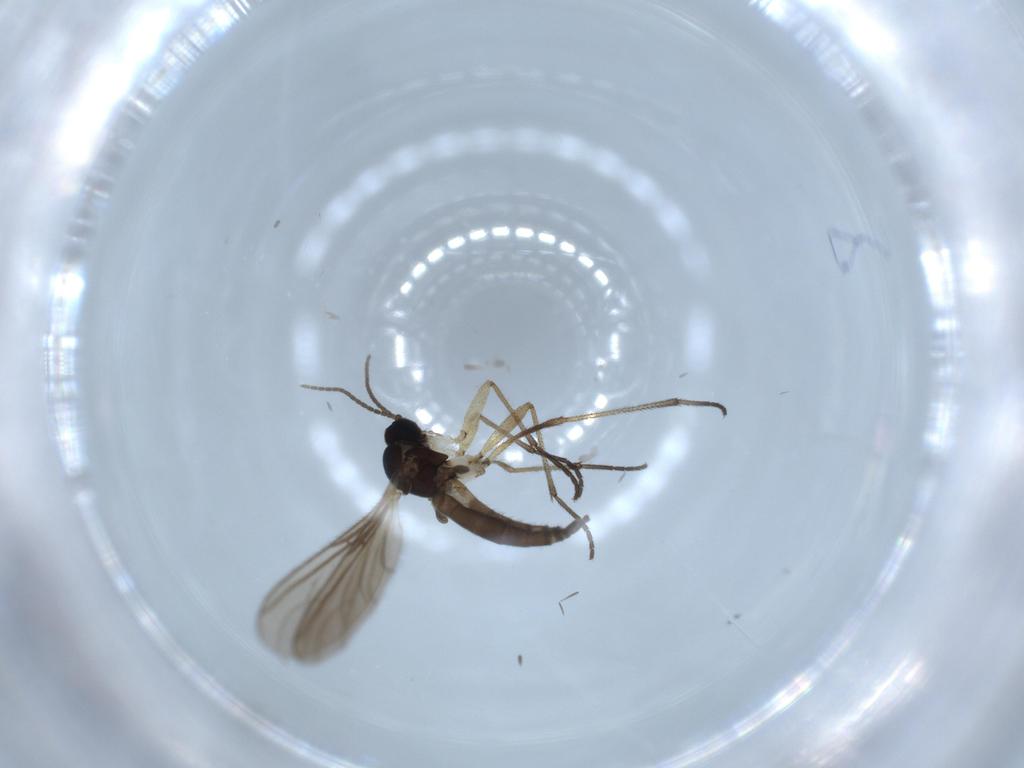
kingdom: Animalia
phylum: Arthropoda
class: Insecta
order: Diptera
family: Sciaridae
